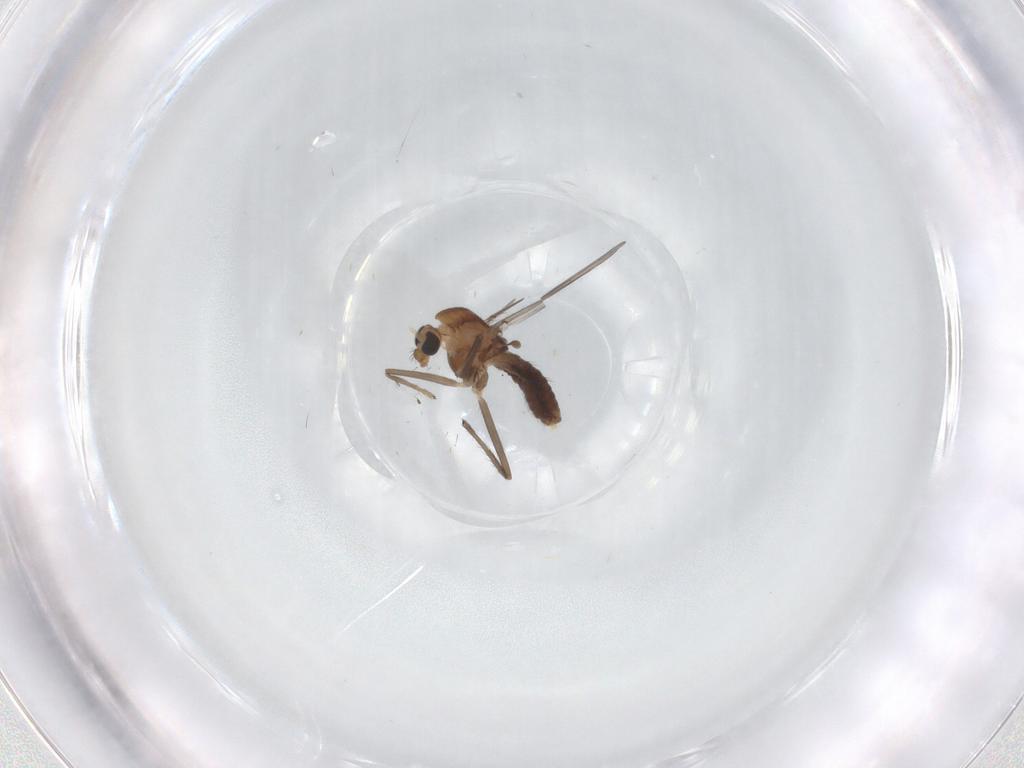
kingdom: Animalia
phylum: Arthropoda
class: Insecta
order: Diptera
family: Chironomidae
